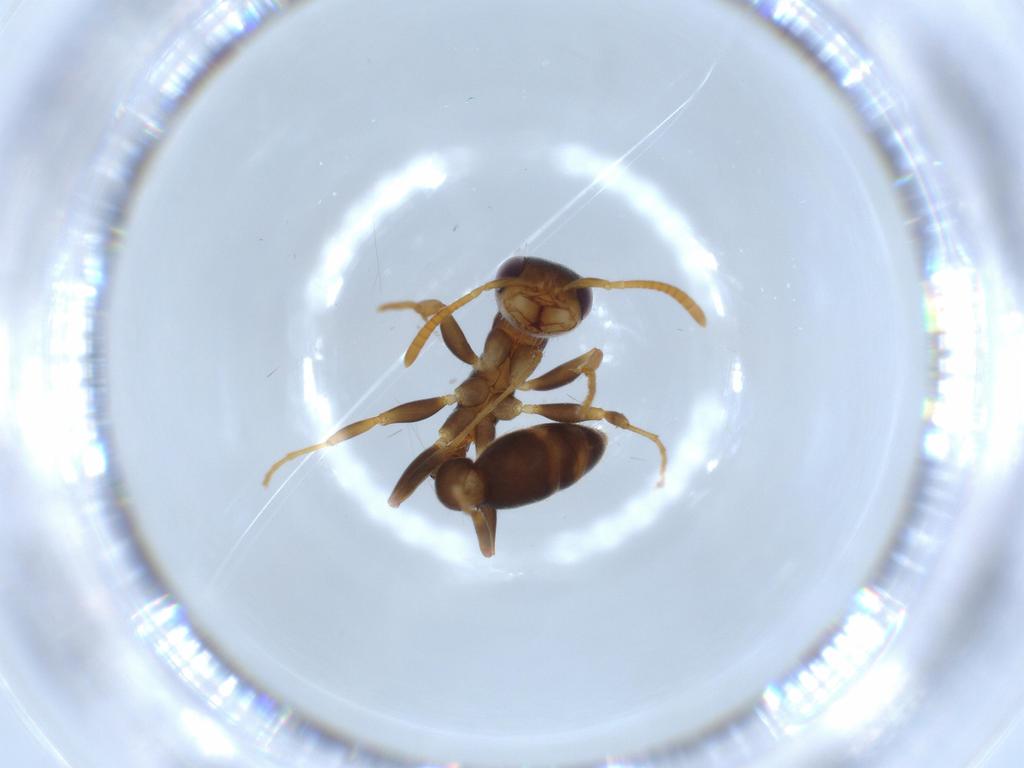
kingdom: Animalia
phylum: Arthropoda
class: Insecta
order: Hymenoptera
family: Formicidae
